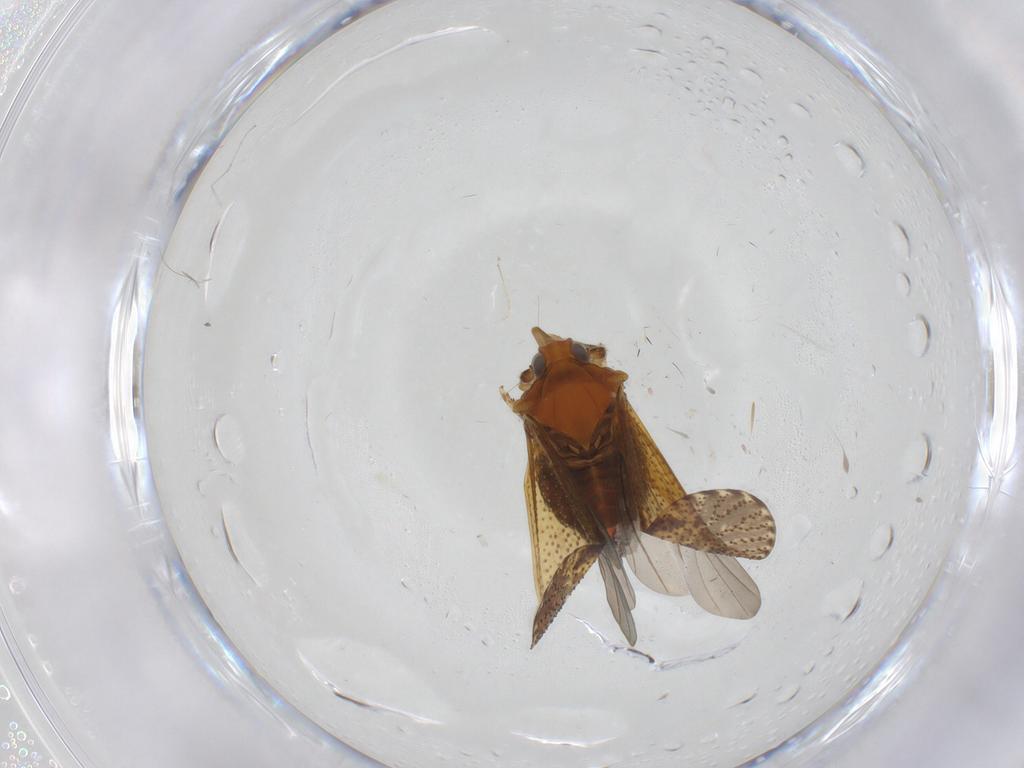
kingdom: Animalia
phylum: Arthropoda
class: Insecta
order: Hemiptera
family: Delphacidae
